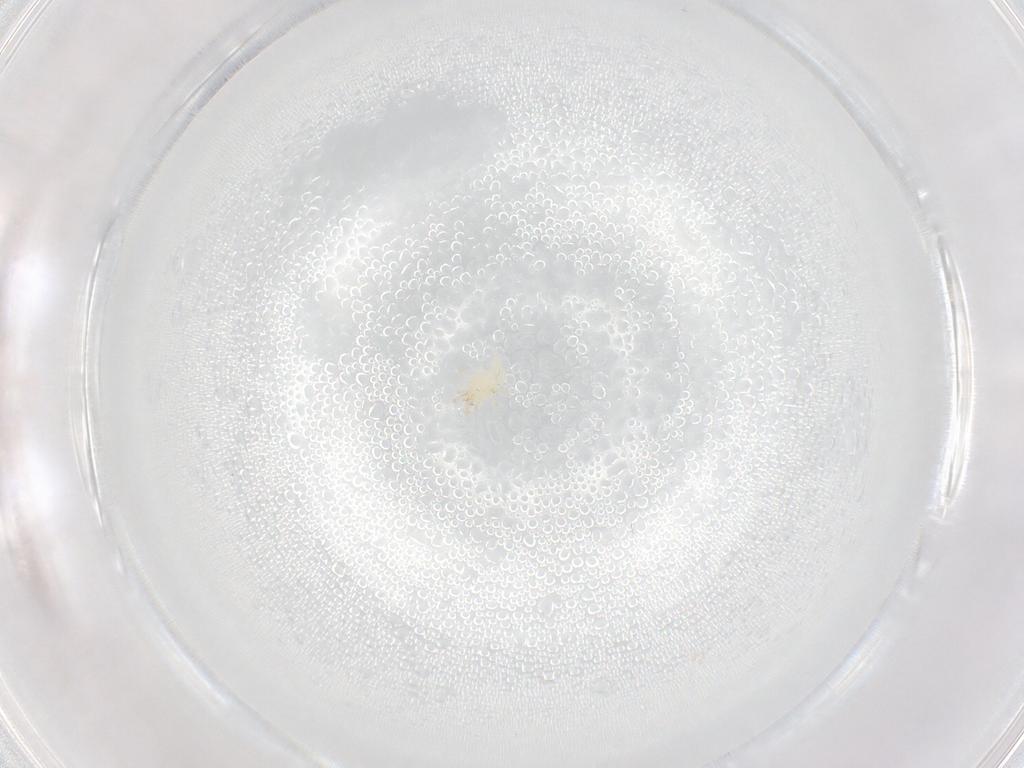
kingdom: Animalia
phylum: Arthropoda
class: Arachnida
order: Mesostigmata
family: Phytoseiidae
